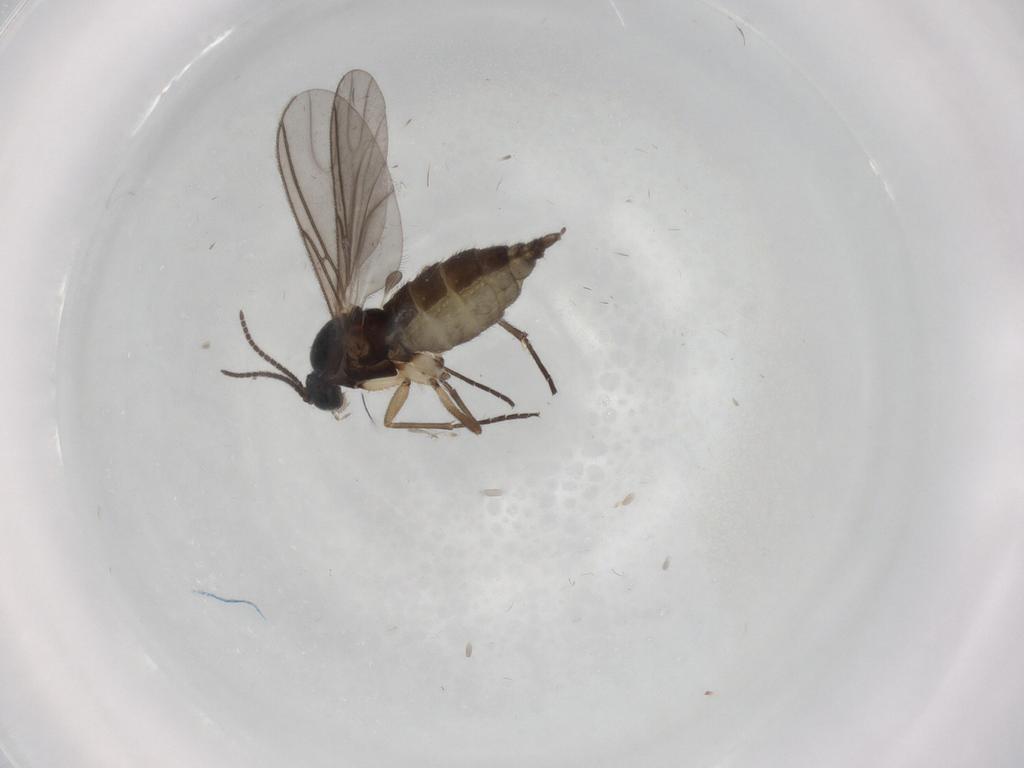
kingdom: Animalia
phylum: Arthropoda
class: Insecta
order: Diptera
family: Sciaridae
